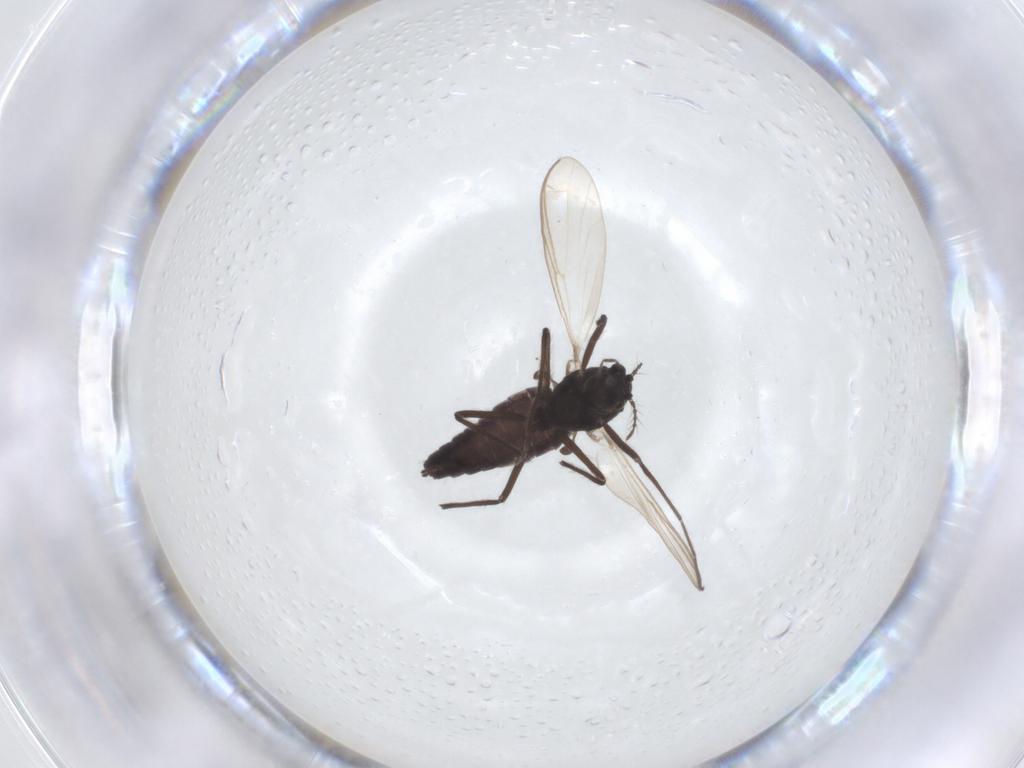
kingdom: Animalia
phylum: Arthropoda
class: Insecta
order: Diptera
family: Chironomidae
